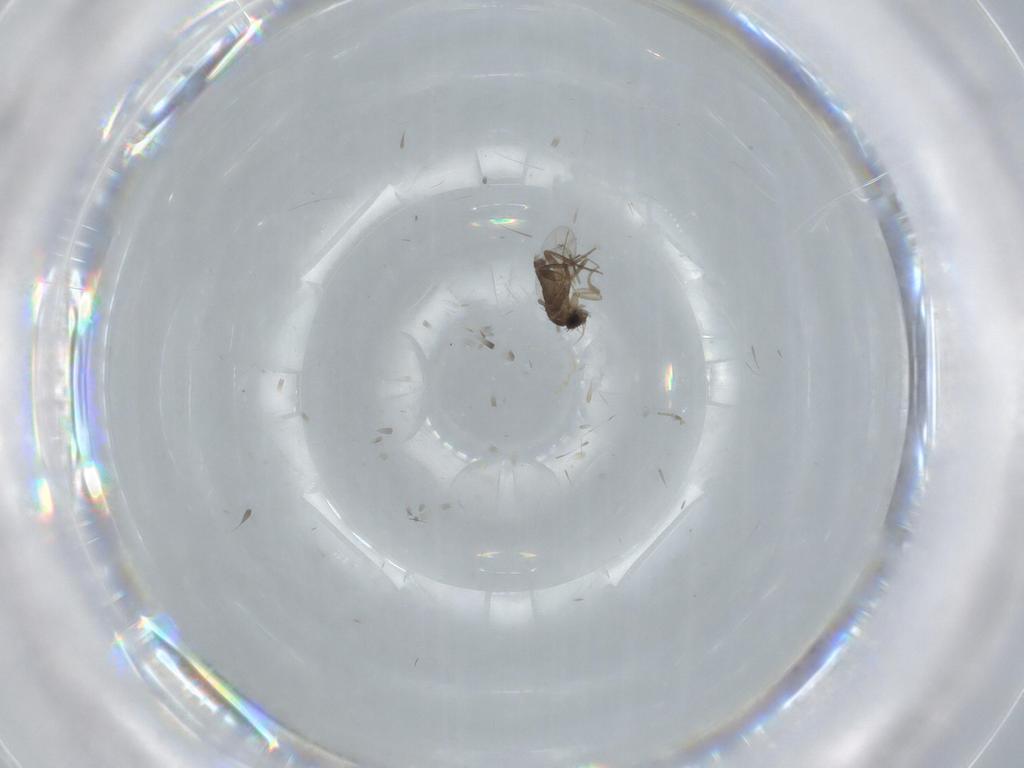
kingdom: Animalia
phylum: Arthropoda
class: Insecta
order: Diptera
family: Phoridae
